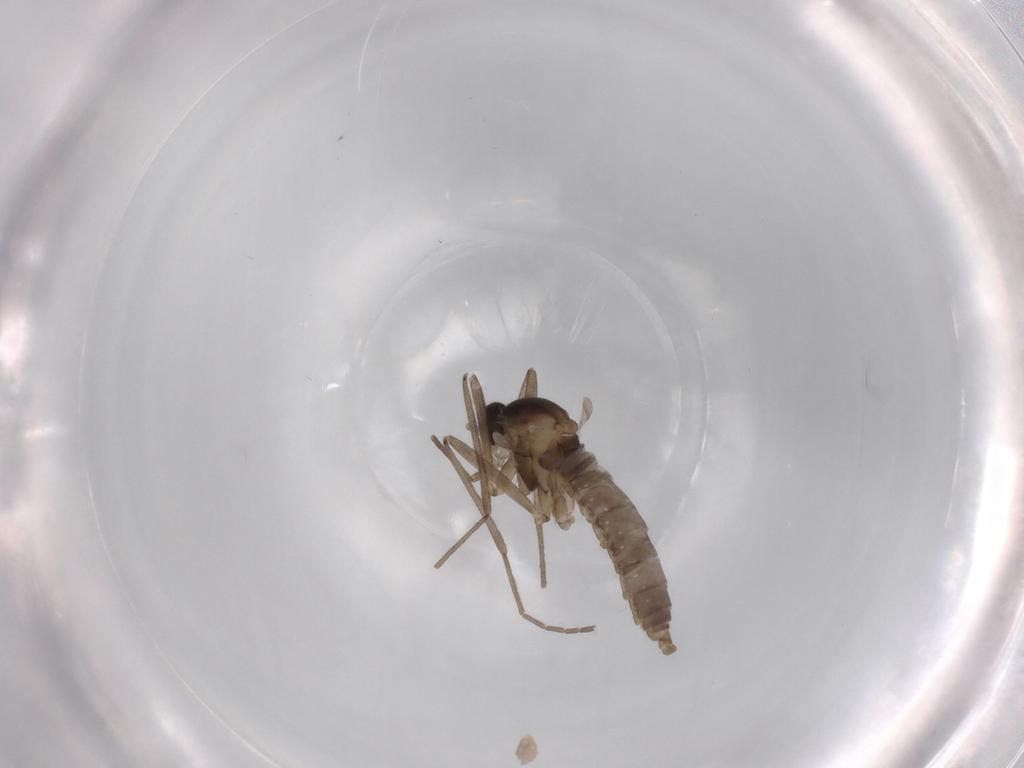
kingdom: Animalia
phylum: Arthropoda
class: Insecta
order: Diptera
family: Cecidomyiidae
